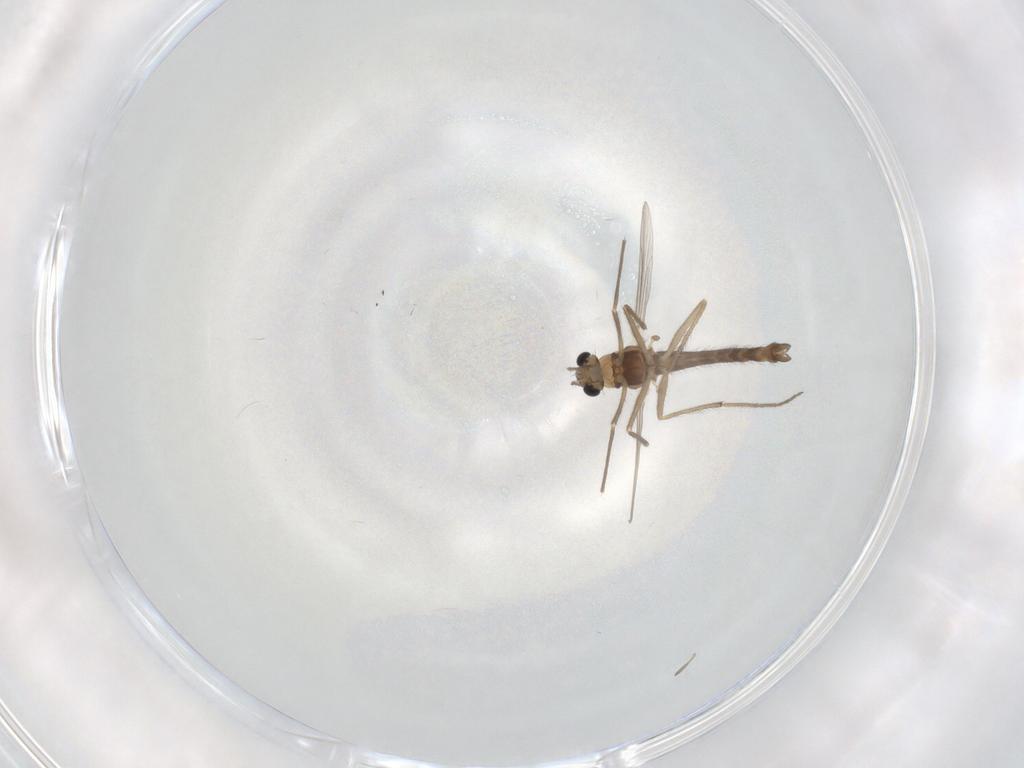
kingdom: Animalia
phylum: Arthropoda
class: Insecta
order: Diptera
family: Chironomidae
